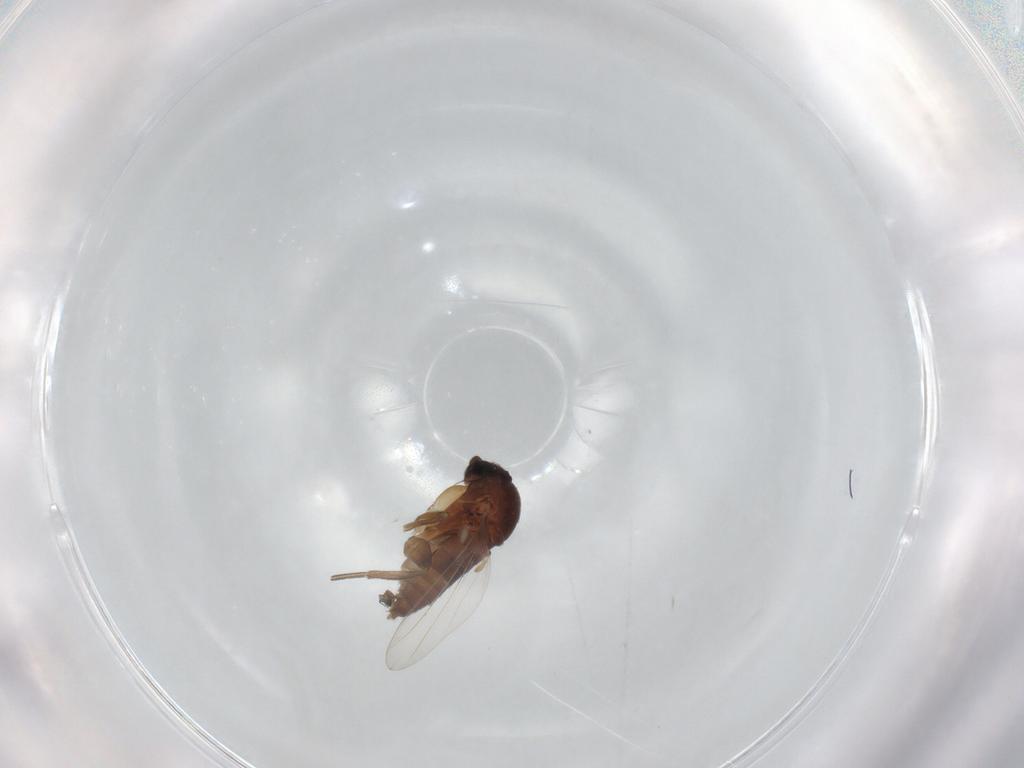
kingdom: Animalia
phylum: Arthropoda
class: Insecta
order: Diptera
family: Phoridae
